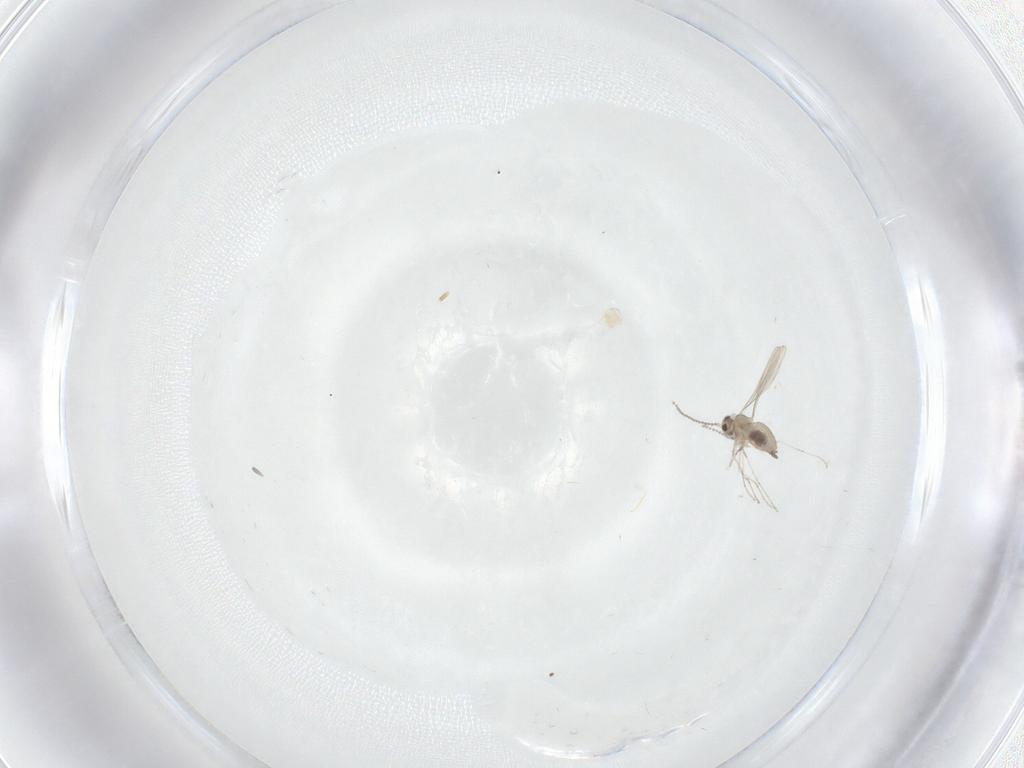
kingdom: Animalia
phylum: Arthropoda
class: Insecta
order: Diptera
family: Cecidomyiidae
